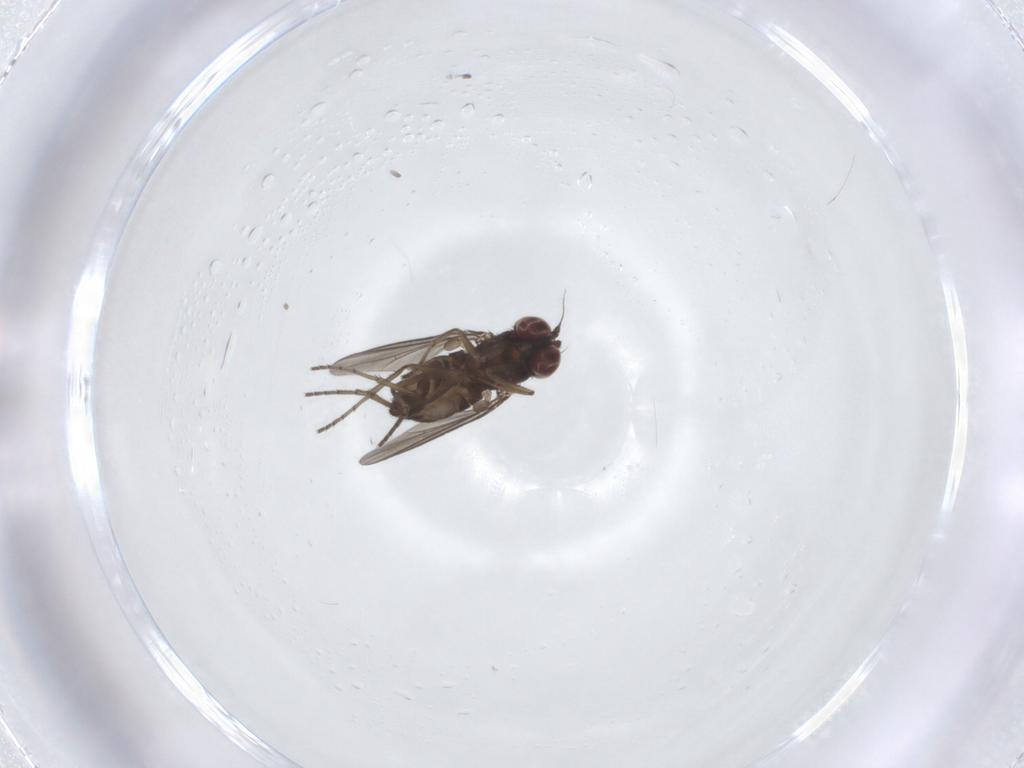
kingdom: Animalia
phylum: Arthropoda
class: Insecta
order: Diptera
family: Dolichopodidae
